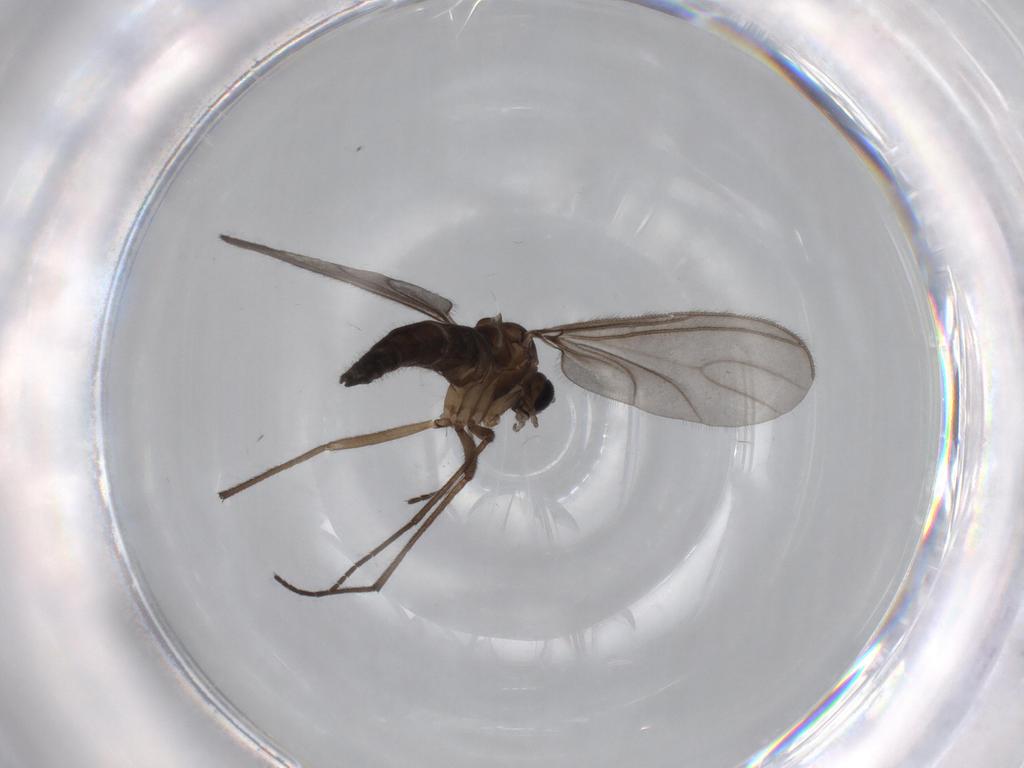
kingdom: Animalia
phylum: Arthropoda
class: Insecta
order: Diptera
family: Sciaridae
